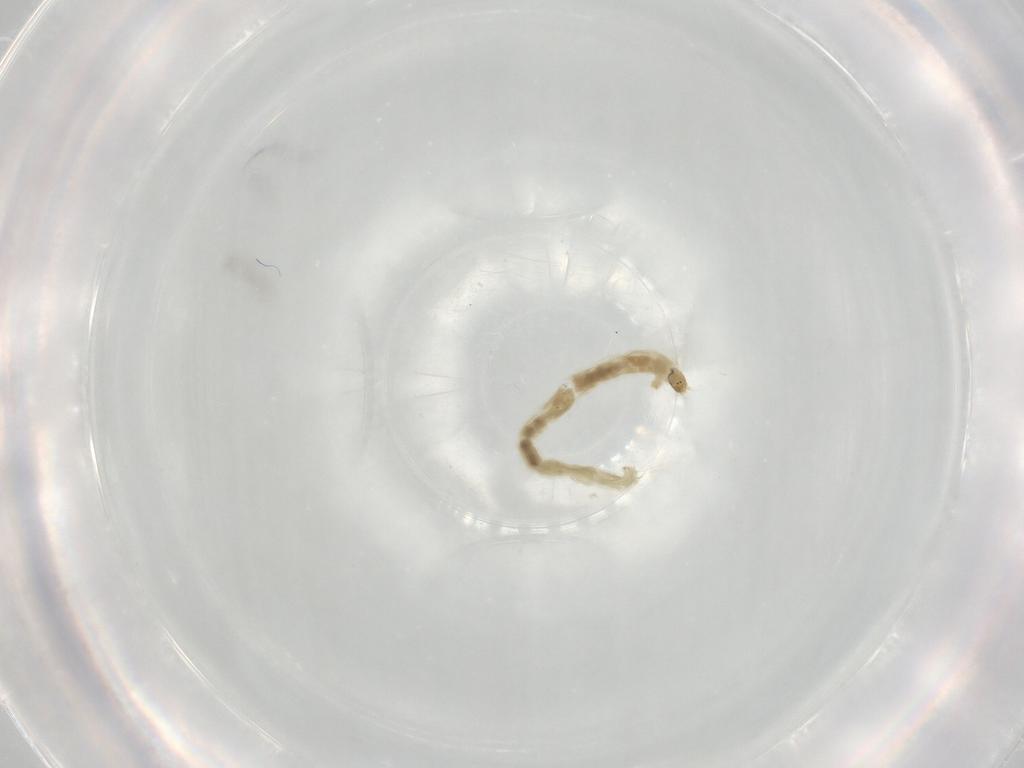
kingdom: Animalia
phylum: Arthropoda
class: Insecta
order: Diptera
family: Chironomidae
